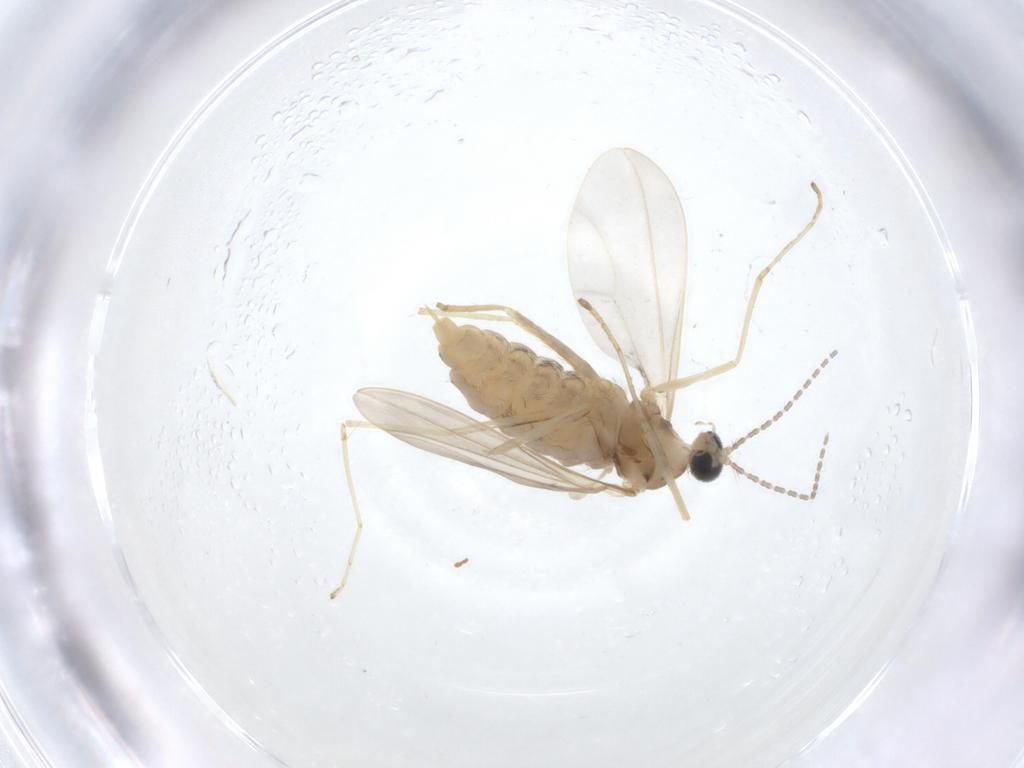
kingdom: Animalia
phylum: Arthropoda
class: Insecta
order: Diptera
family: Cecidomyiidae
